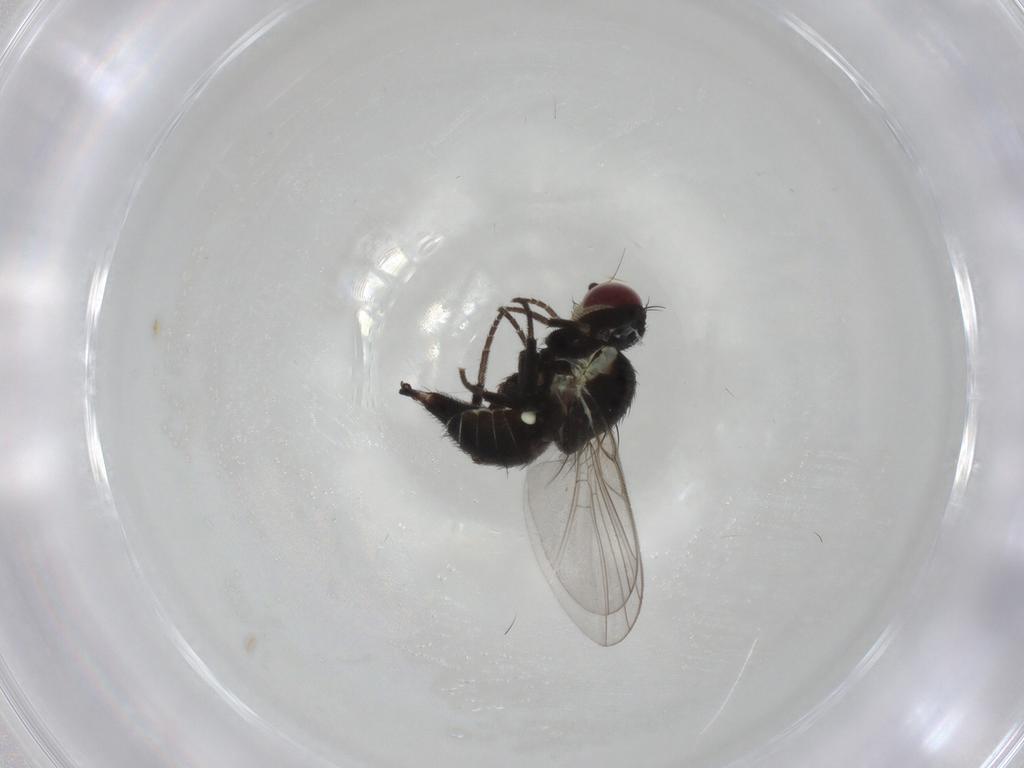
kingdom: Animalia
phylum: Arthropoda
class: Insecta
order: Diptera
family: Agromyzidae
